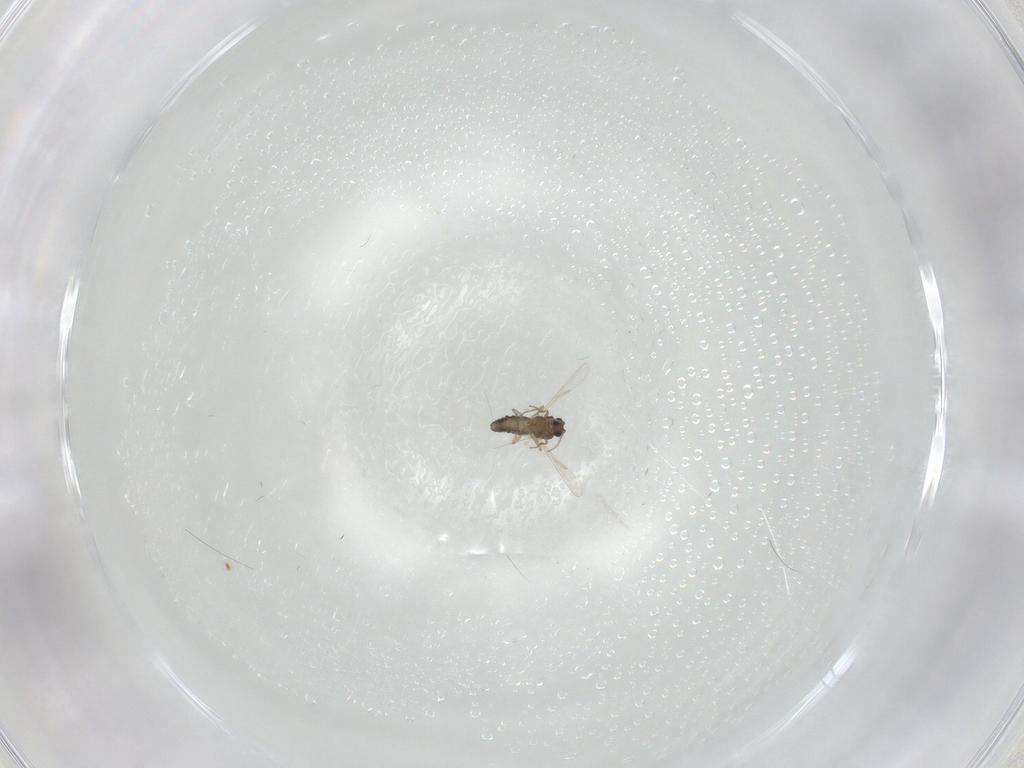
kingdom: Animalia
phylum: Arthropoda
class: Insecta
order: Diptera
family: Ceratopogonidae
